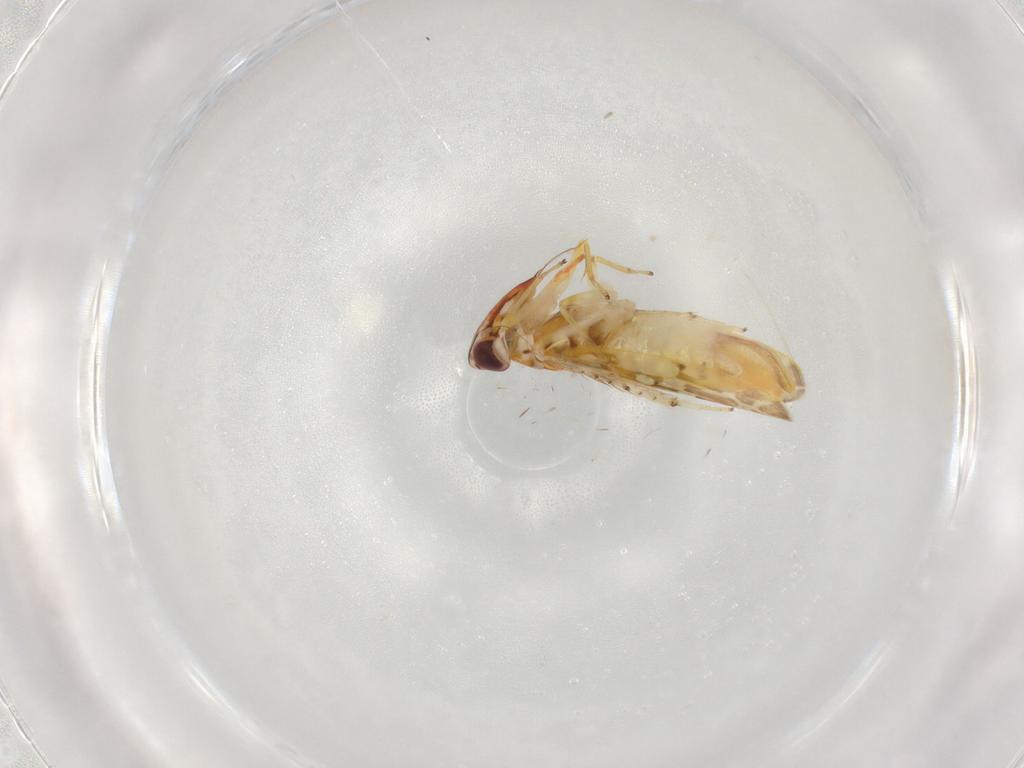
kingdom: Animalia
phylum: Arthropoda
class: Insecta
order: Hemiptera
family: Cicadellidae
